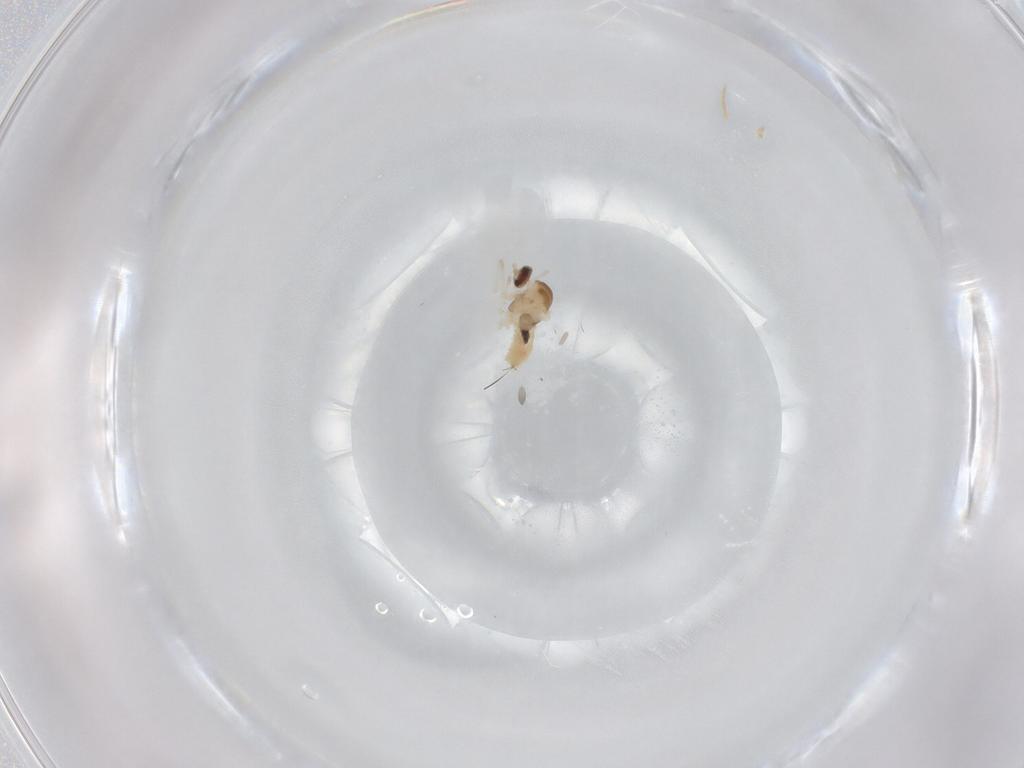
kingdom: Animalia
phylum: Arthropoda
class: Insecta
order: Diptera
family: Cecidomyiidae
